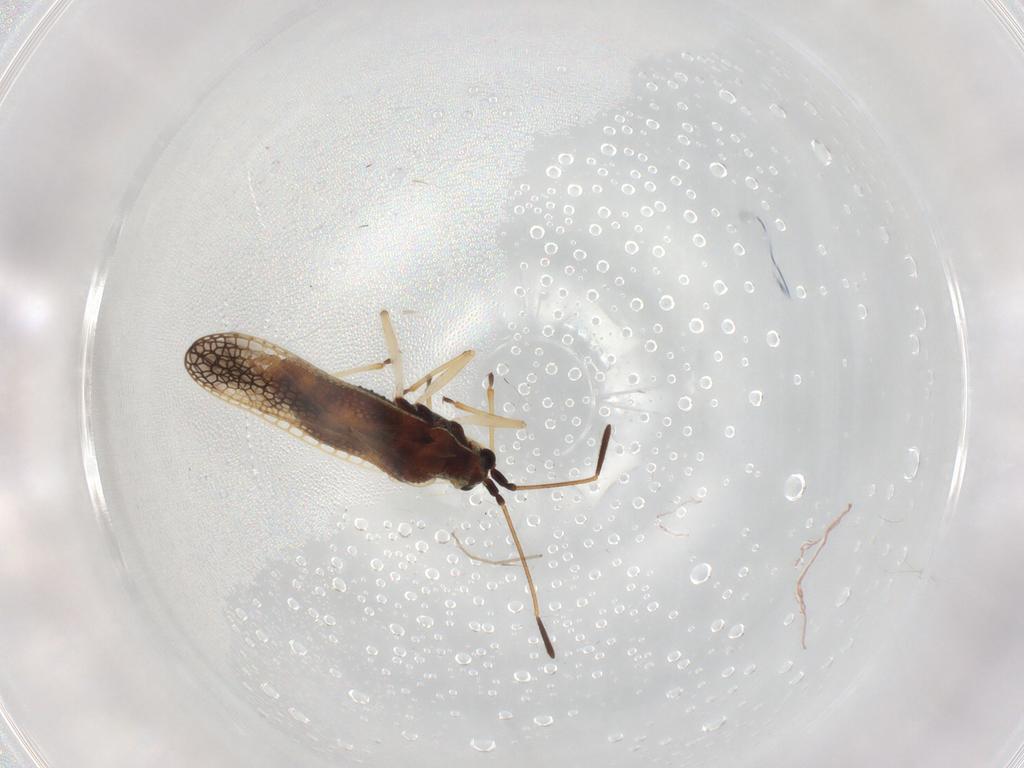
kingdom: Animalia
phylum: Arthropoda
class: Insecta
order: Hemiptera
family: Tingidae
